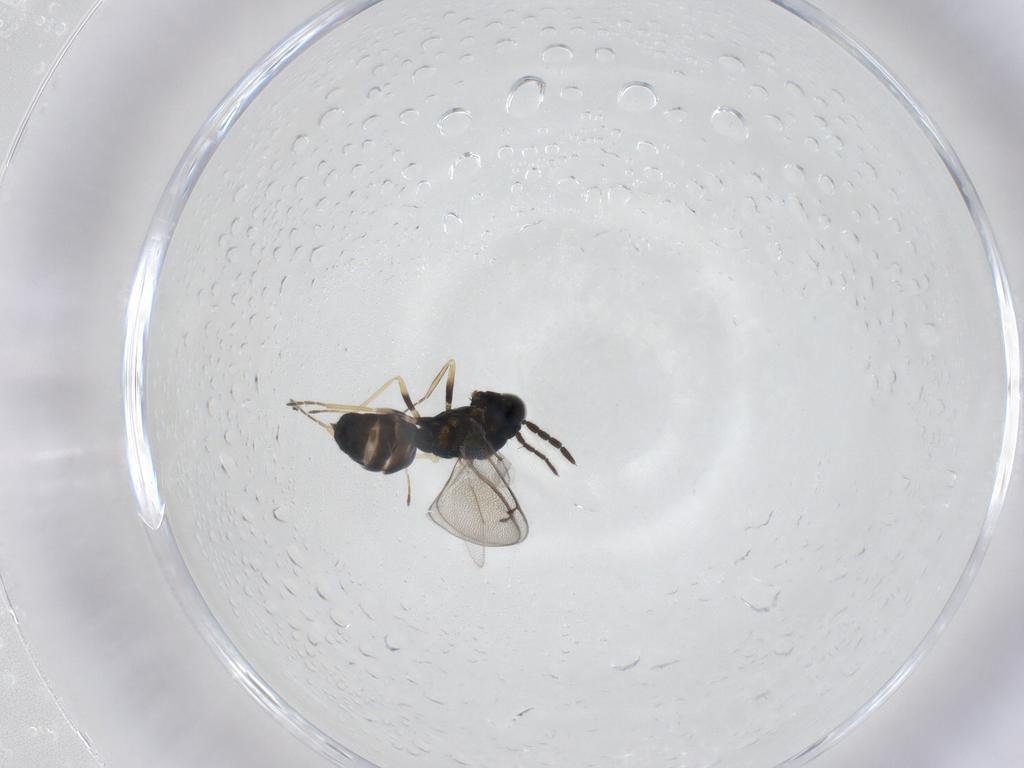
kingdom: Animalia
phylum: Arthropoda
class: Insecta
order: Hymenoptera
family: Eulophidae
